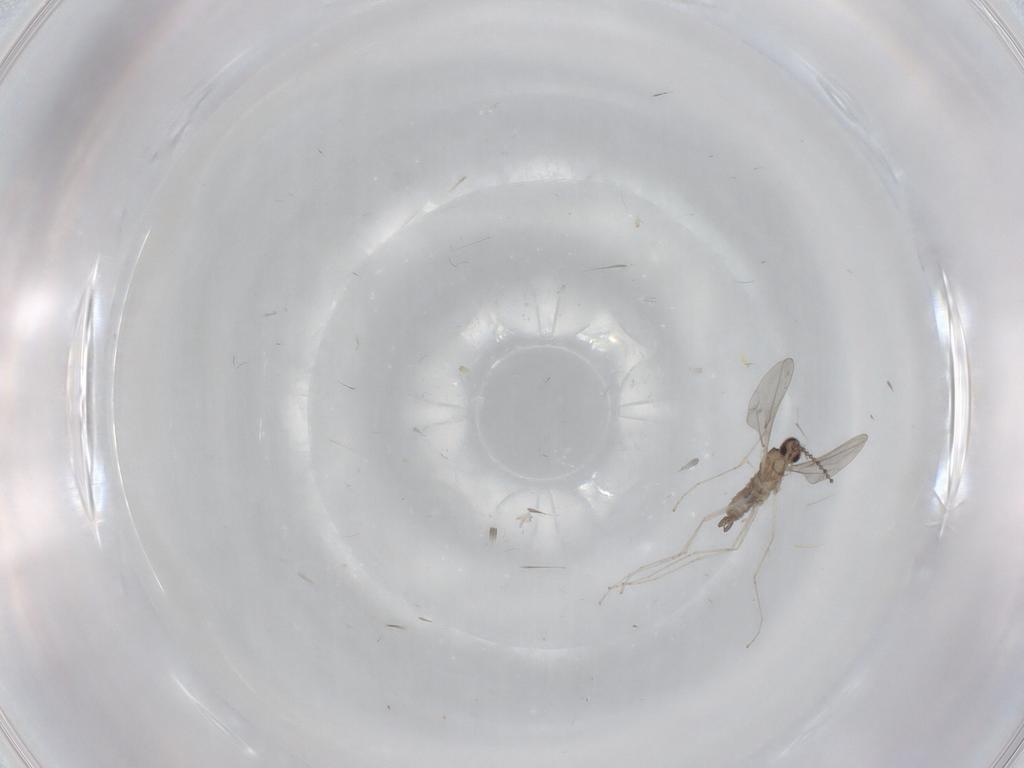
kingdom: Animalia
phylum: Arthropoda
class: Insecta
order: Diptera
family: Cecidomyiidae
